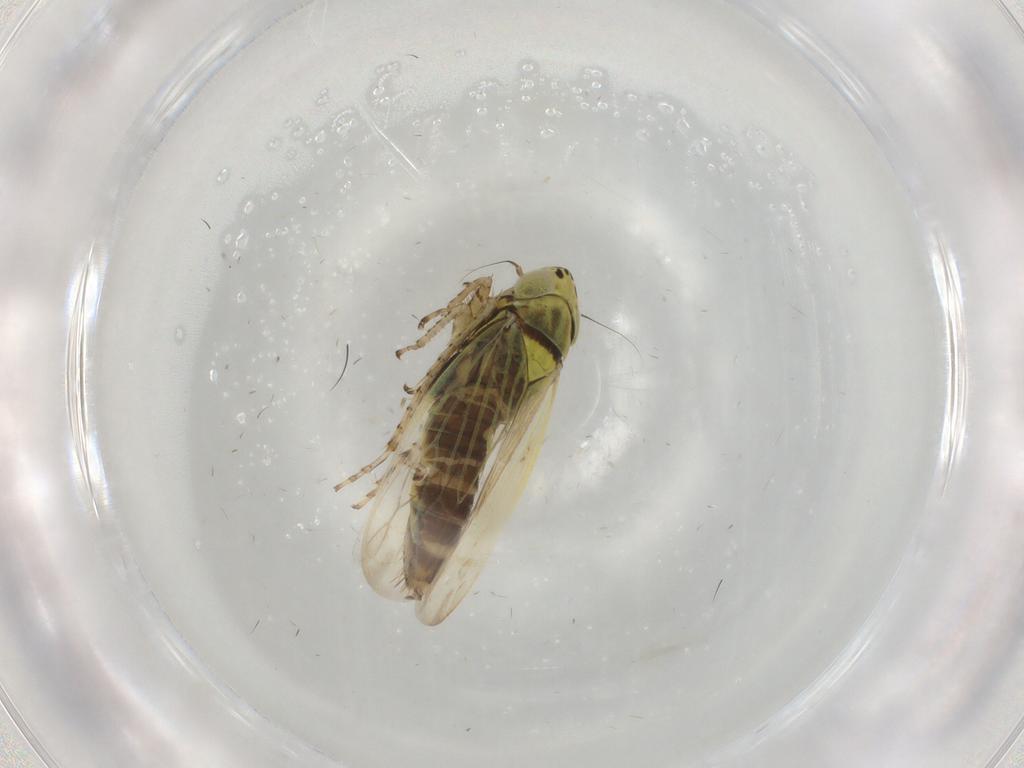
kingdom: Animalia
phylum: Arthropoda
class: Insecta
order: Hemiptera
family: Cicadellidae
